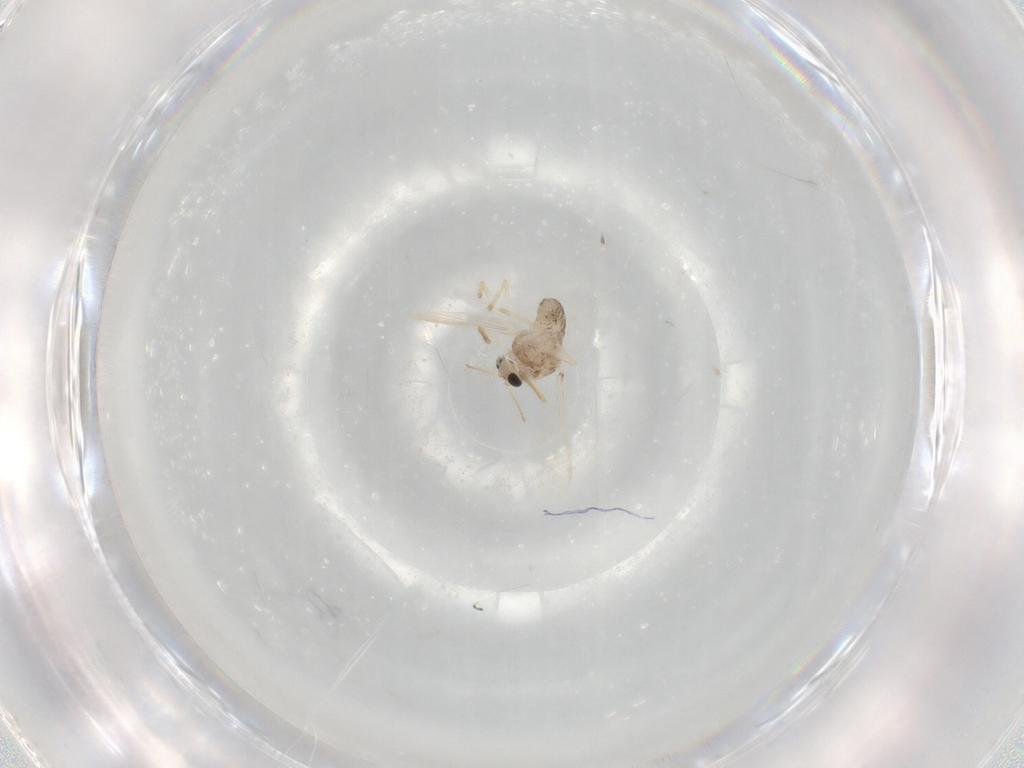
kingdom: Animalia
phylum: Arthropoda
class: Insecta
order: Diptera
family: Chironomidae
